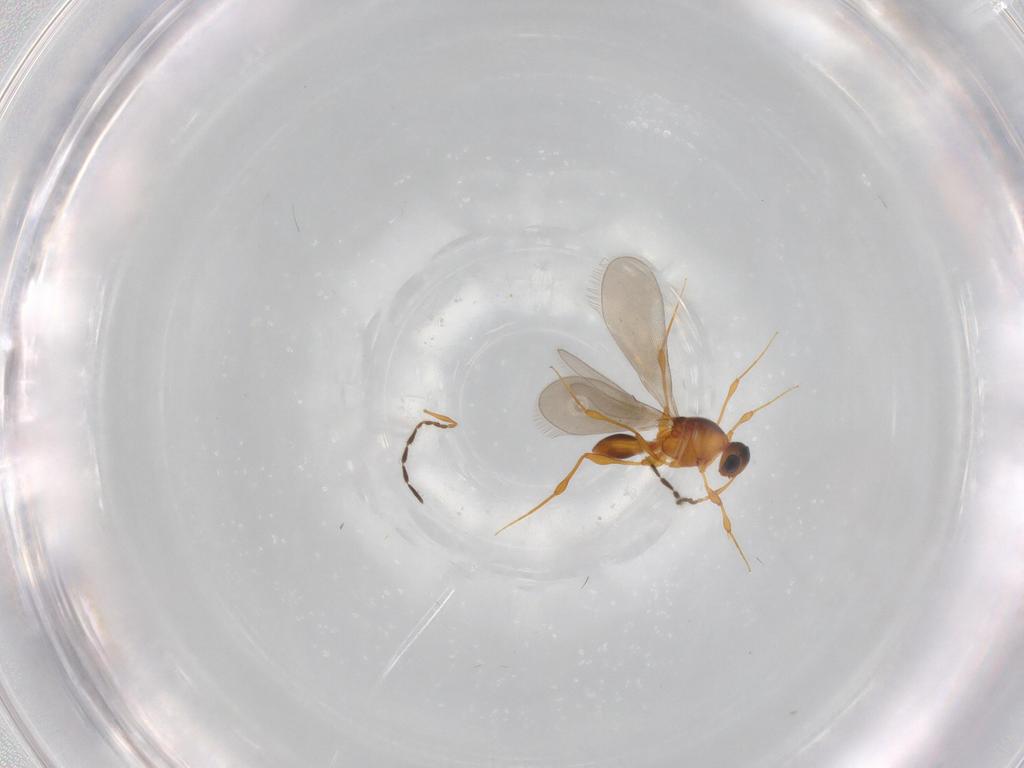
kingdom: Animalia
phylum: Arthropoda
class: Insecta
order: Hymenoptera
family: Platygastridae
